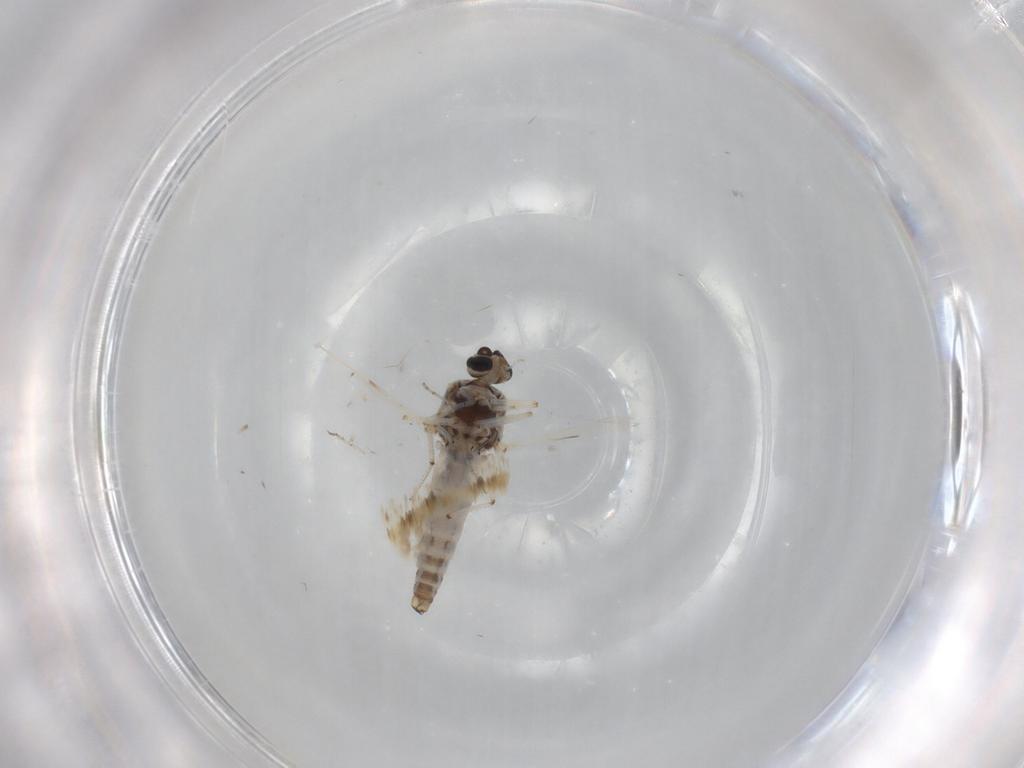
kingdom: Animalia
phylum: Arthropoda
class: Insecta
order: Diptera
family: Ceratopogonidae
